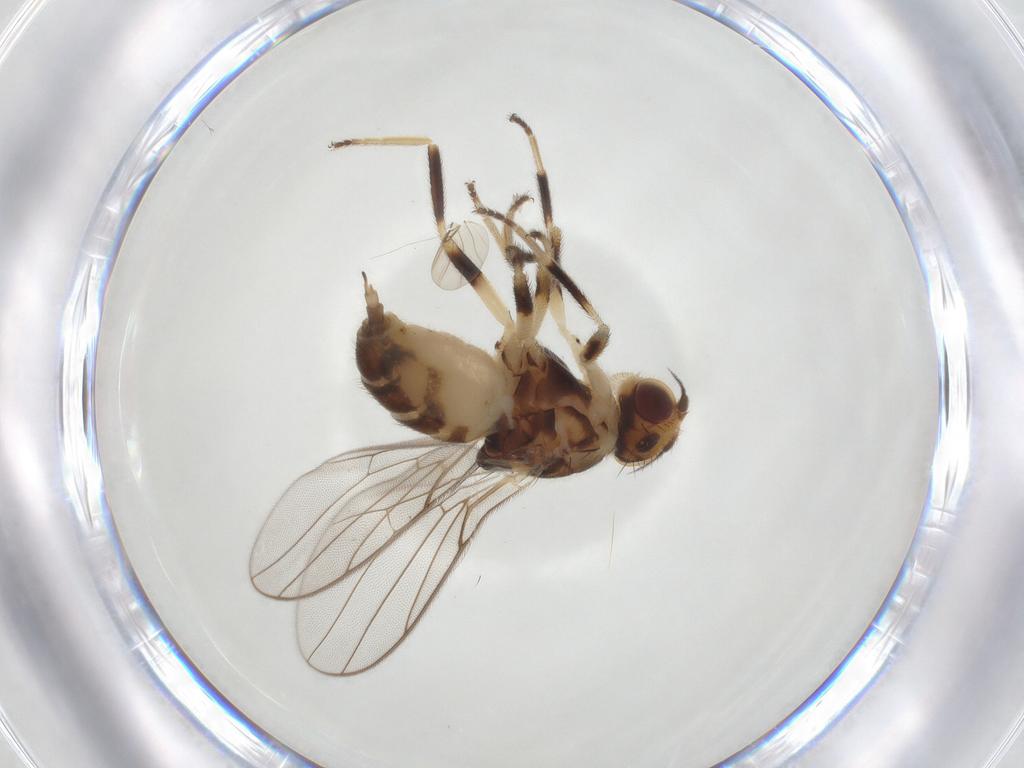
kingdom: Animalia
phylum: Arthropoda
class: Insecta
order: Diptera
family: Chloropidae
